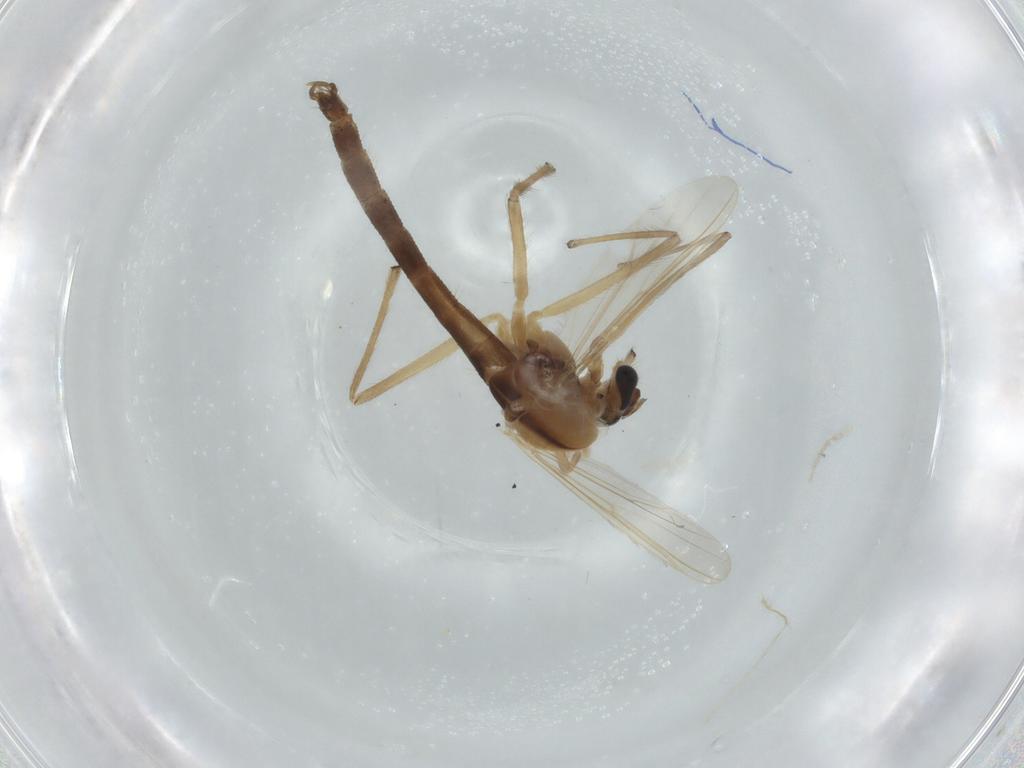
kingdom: Animalia
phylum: Arthropoda
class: Insecta
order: Diptera
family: Chironomidae
